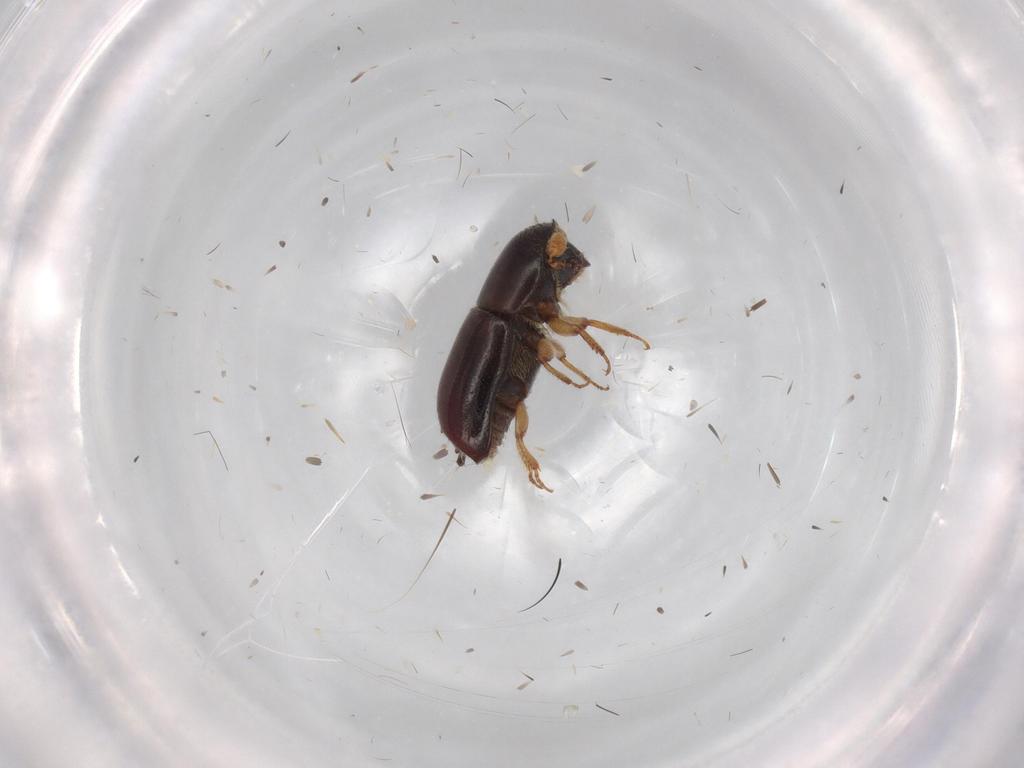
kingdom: Animalia
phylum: Arthropoda
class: Insecta
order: Coleoptera
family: Curculionidae
